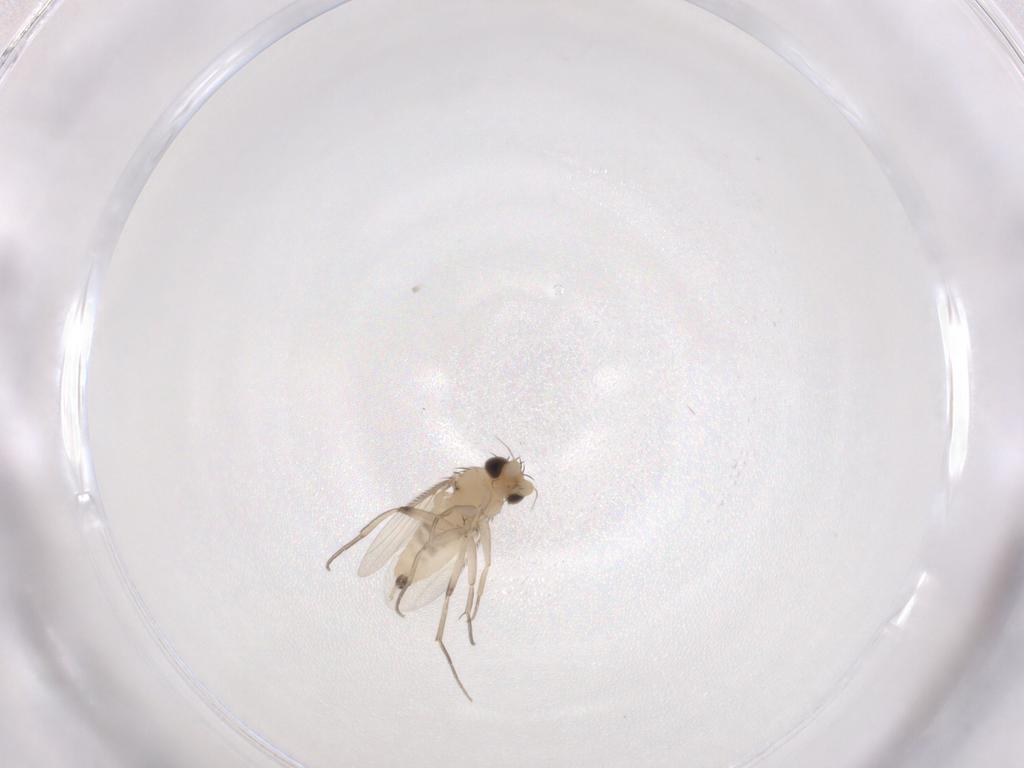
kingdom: Animalia
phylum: Arthropoda
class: Insecta
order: Diptera
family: Phoridae
